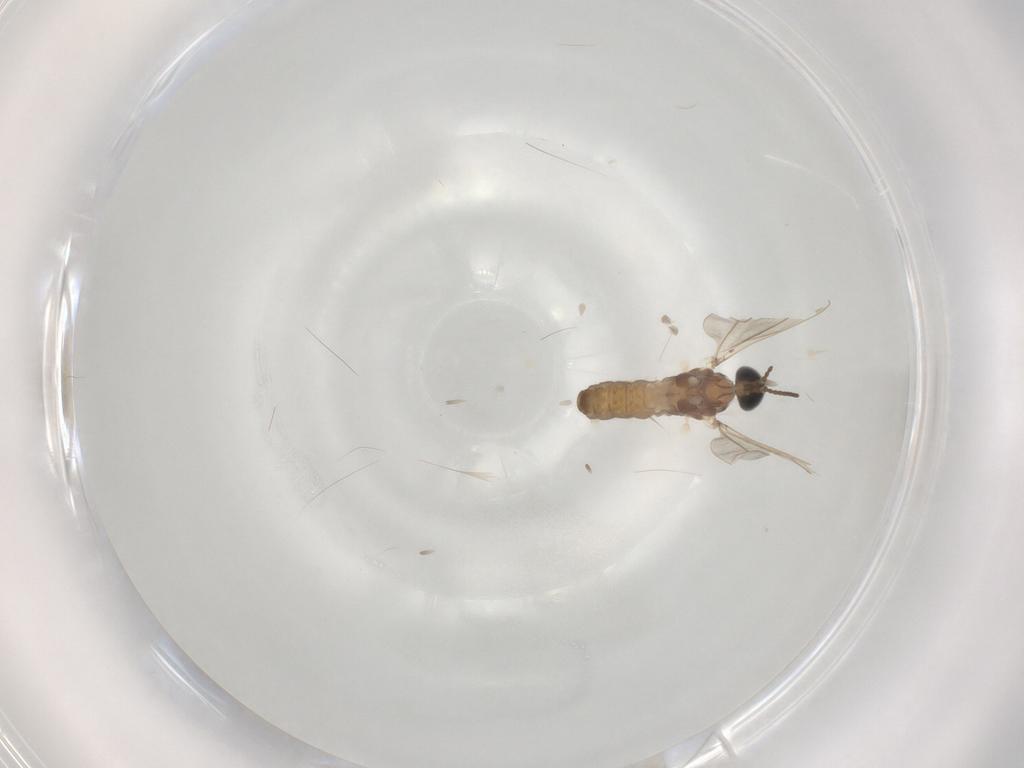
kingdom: Animalia
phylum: Arthropoda
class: Insecta
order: Diptera
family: Cecidomyiidae
